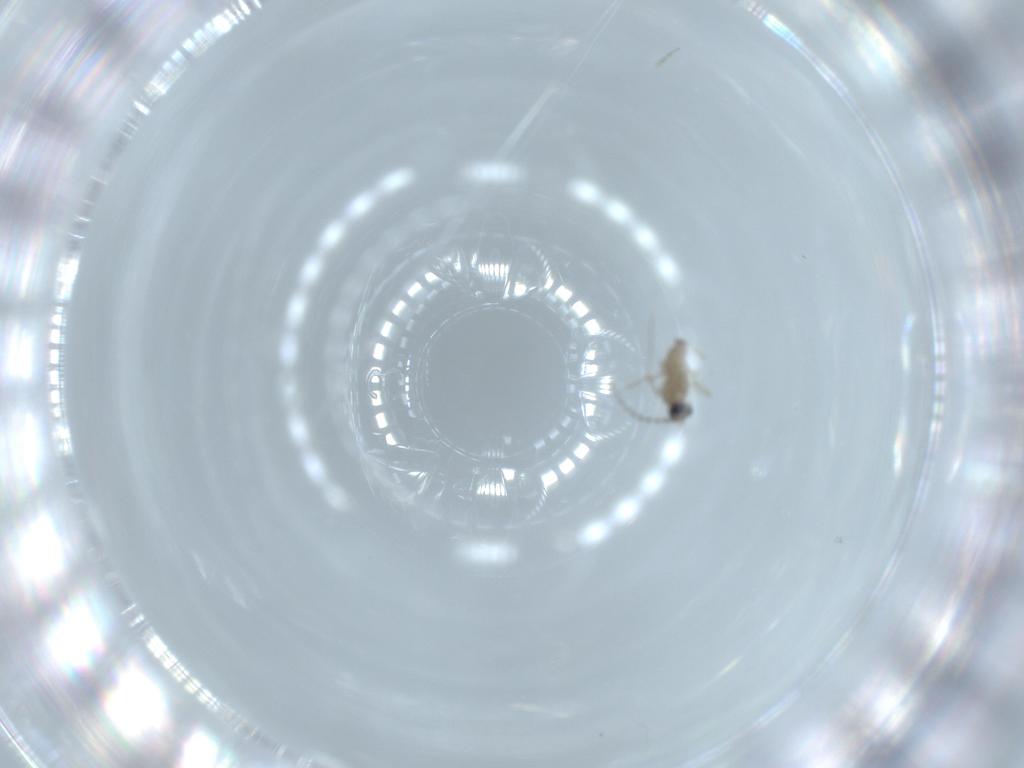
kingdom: Animalia
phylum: Arthropoda
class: Insecta
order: Diptera
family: Cecidomyiidae
